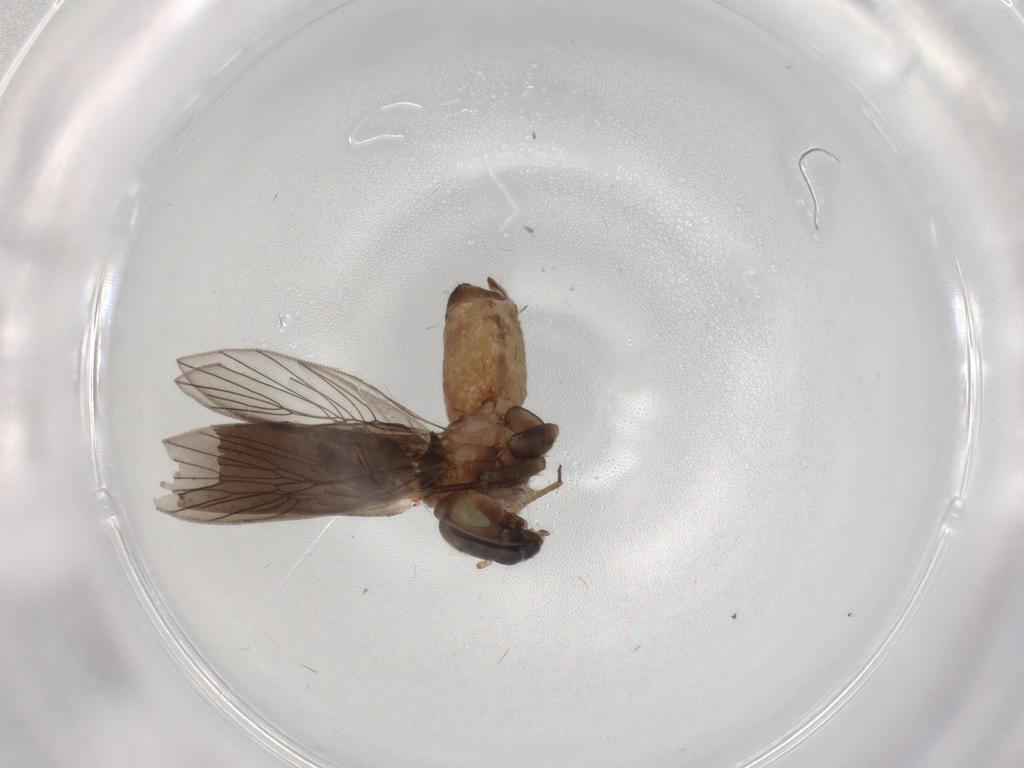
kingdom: Animalia
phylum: Arthropoda
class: Insecta
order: Psocodea
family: Lepidopsocidae
